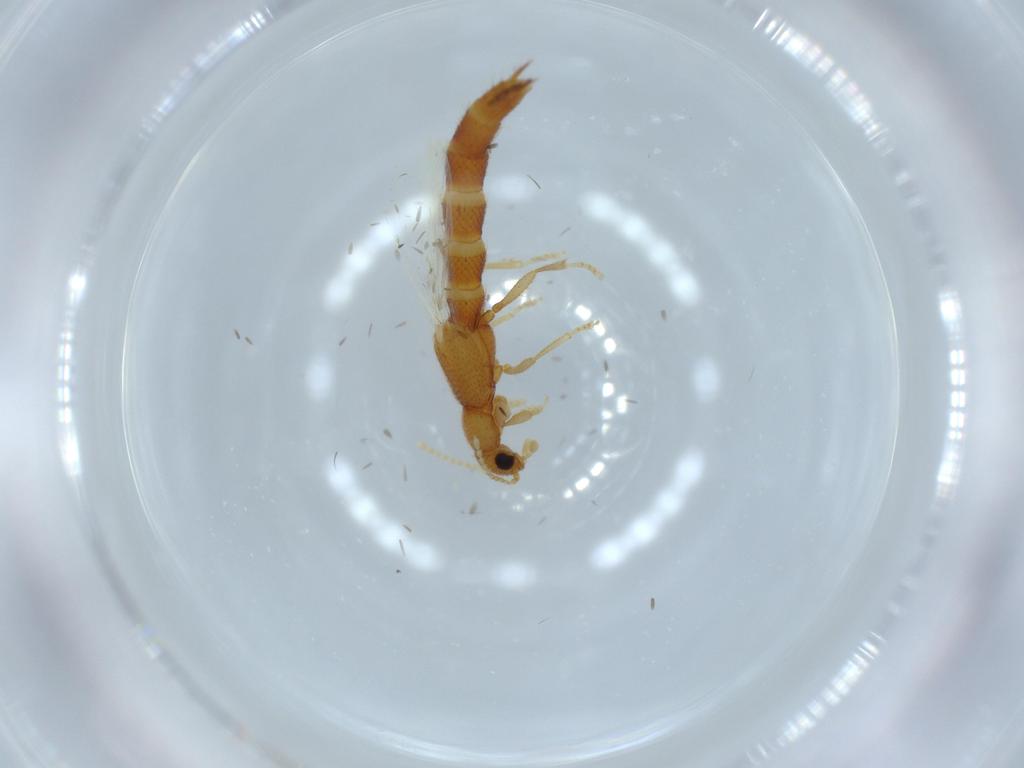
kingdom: Animalia
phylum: Arthropoda
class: Insecta
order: Coleoptera
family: Staphylinidae
